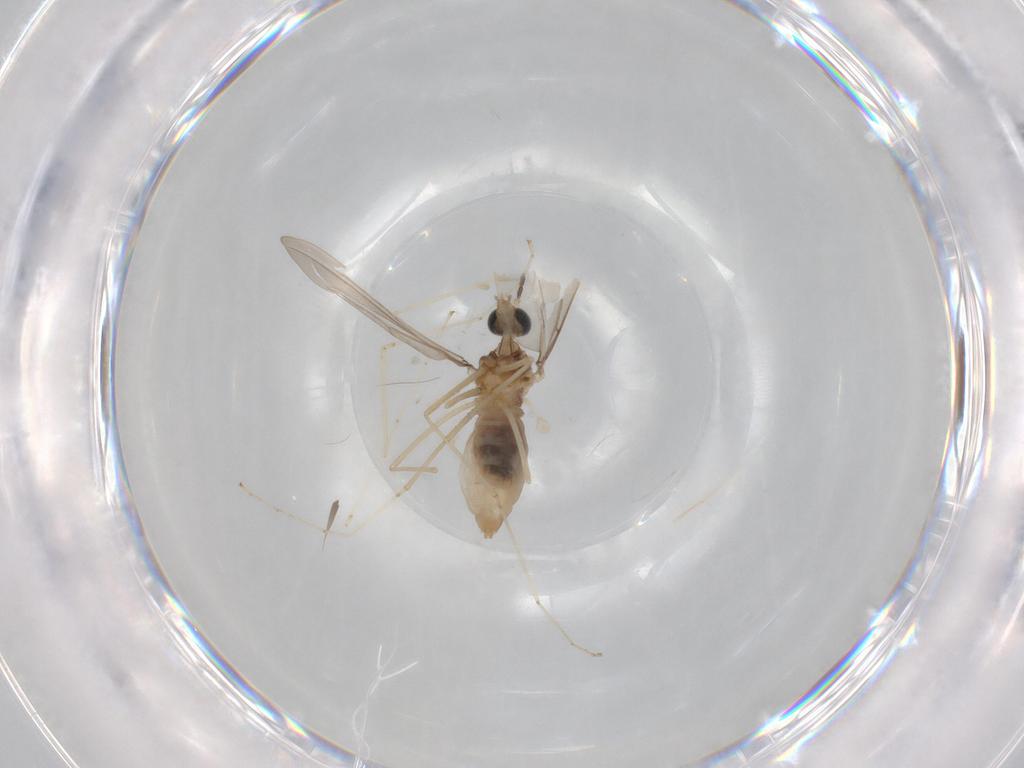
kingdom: Animalia
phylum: Arthropoda
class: Insecta
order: Diptera
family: Cecidomyiidae
